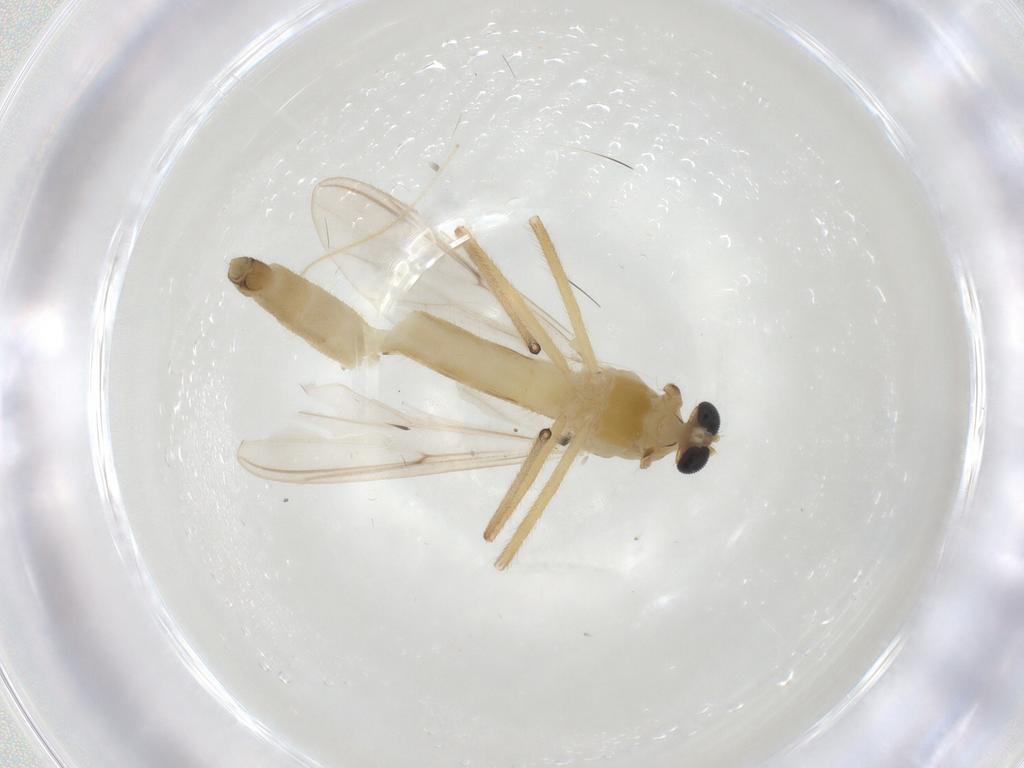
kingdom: Animalia
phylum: Arthropoda
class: Insecta
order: Diptera
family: Chironomidae
